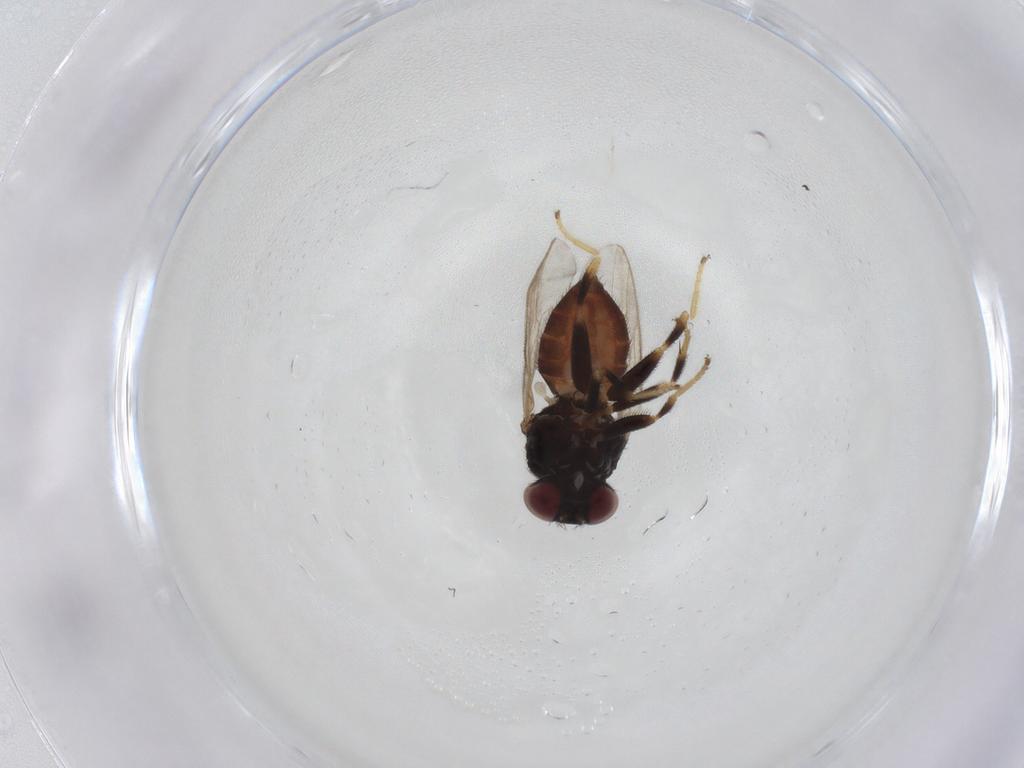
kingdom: Animalia
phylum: Arthropoda
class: Insecta
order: Diptera
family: Chloropidae
